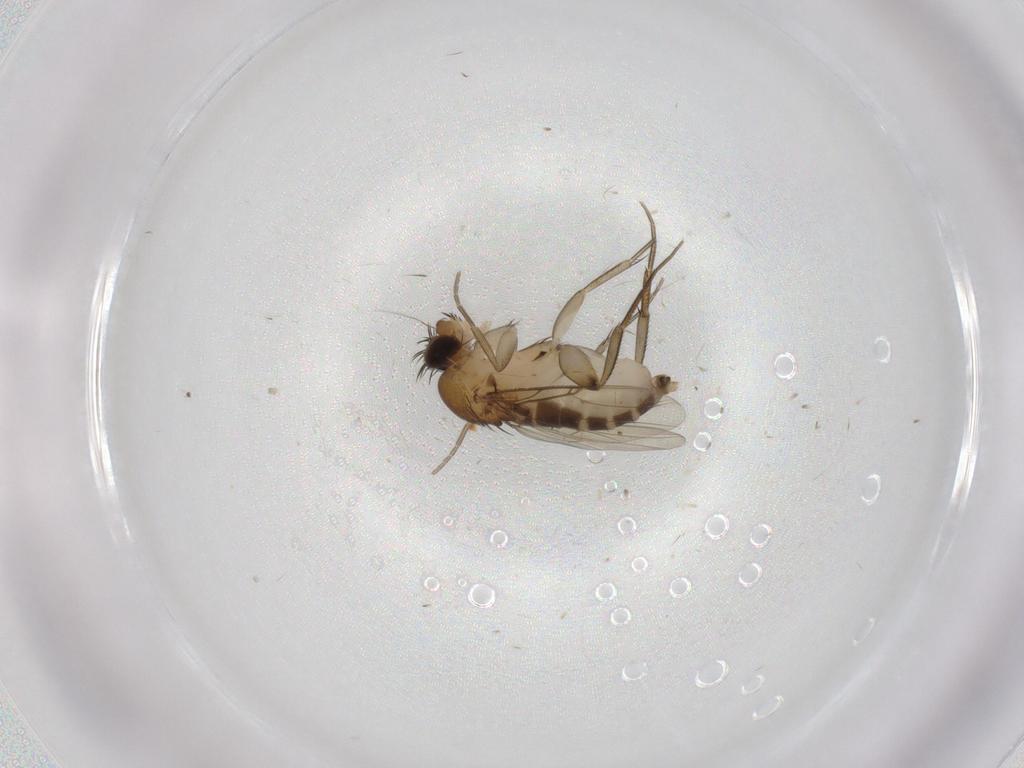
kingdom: Animalia
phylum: Arthropoda
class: Insecta
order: Diptera
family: Phoridae
